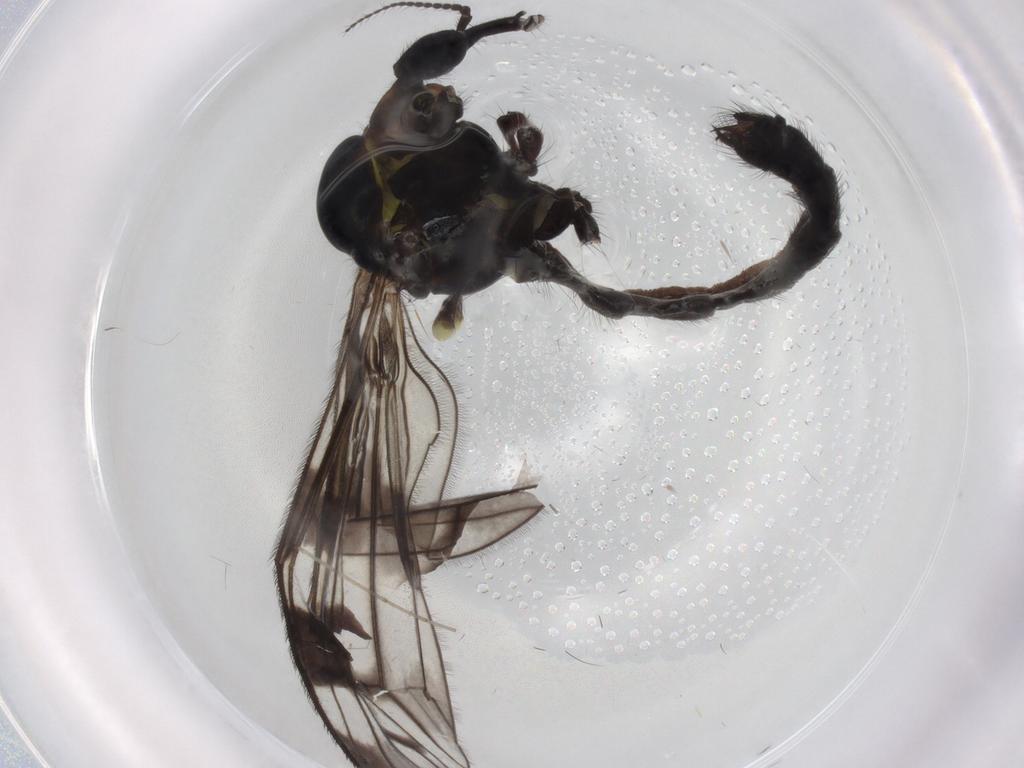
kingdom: Animalia
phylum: Arthropoda
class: Insecta
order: Diptera
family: Limoniidae
